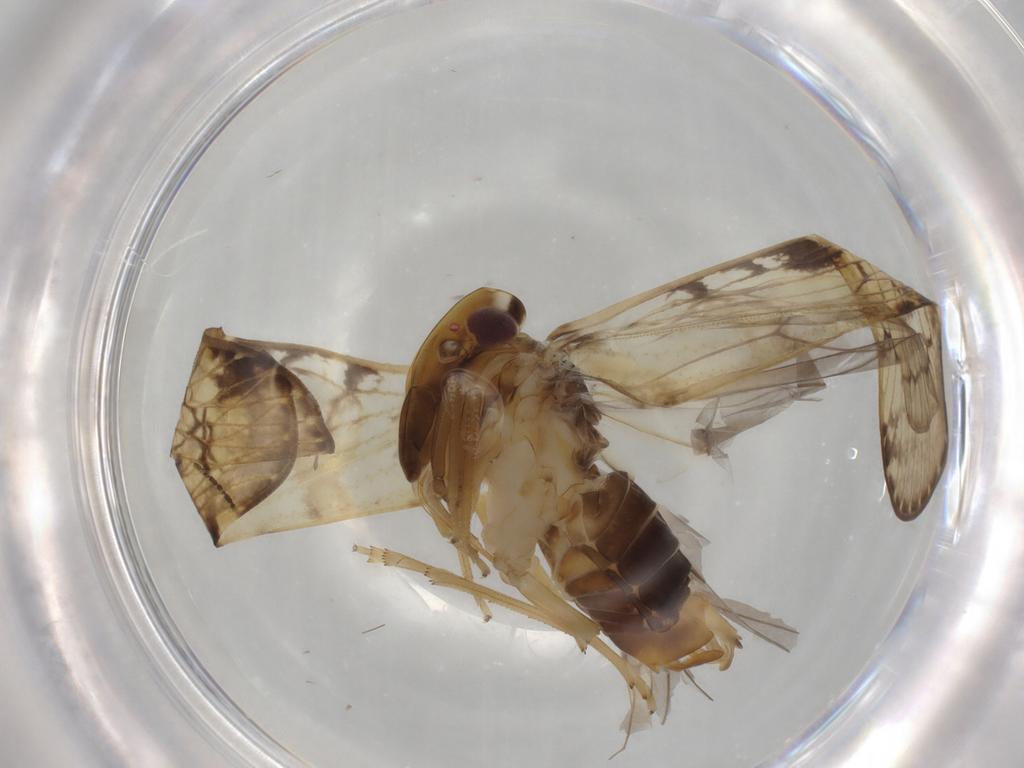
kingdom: Animalia
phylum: Arthropoda
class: Insecta
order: Hemiptera
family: Cixiidae
